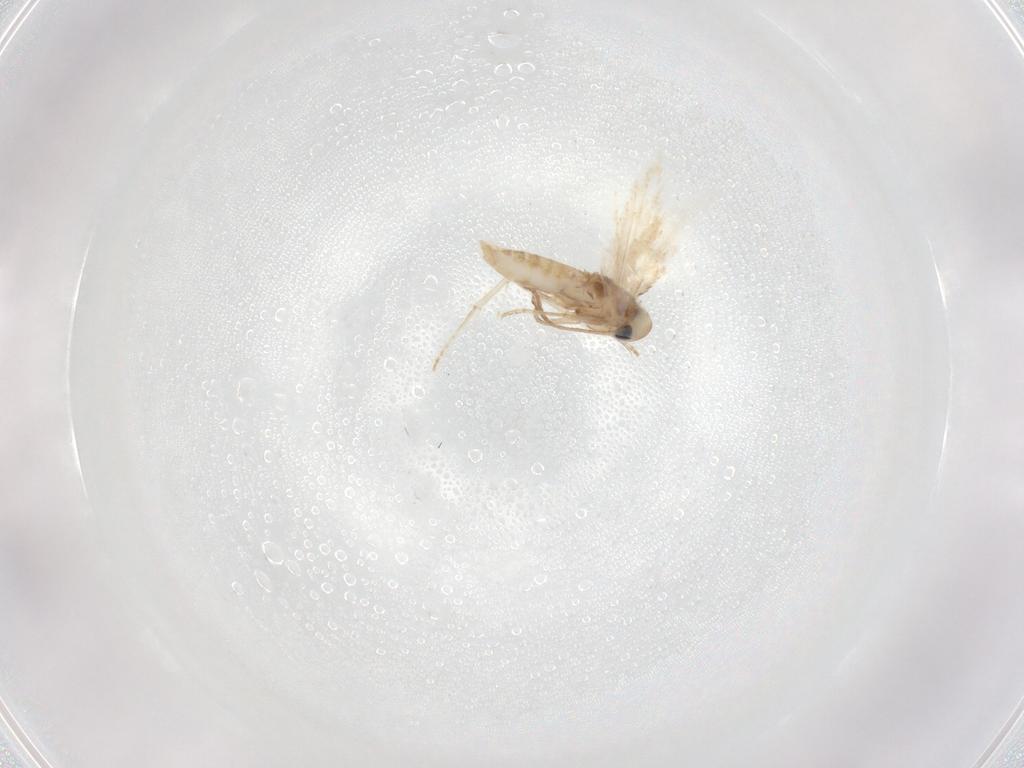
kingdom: Animalia
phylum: Arthropoda
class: Insecta
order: Lepidoptera
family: Depressariidae
